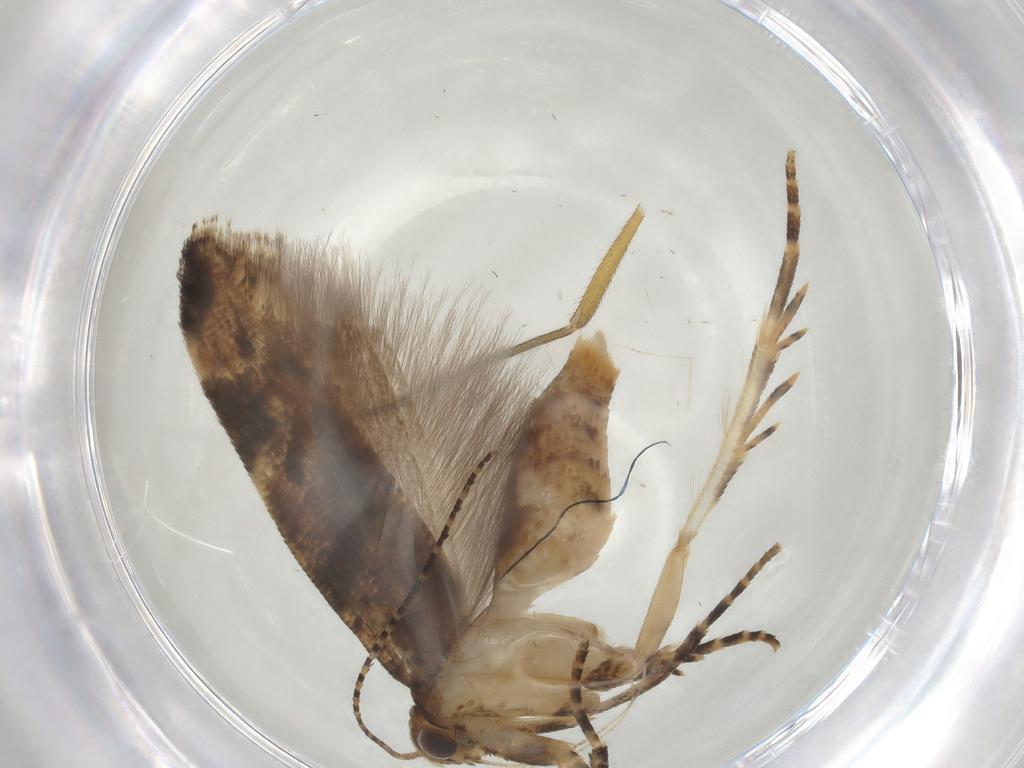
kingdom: Animalia
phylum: Arthropoda
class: Insecta
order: Lepidoptera
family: Gelechiidae
